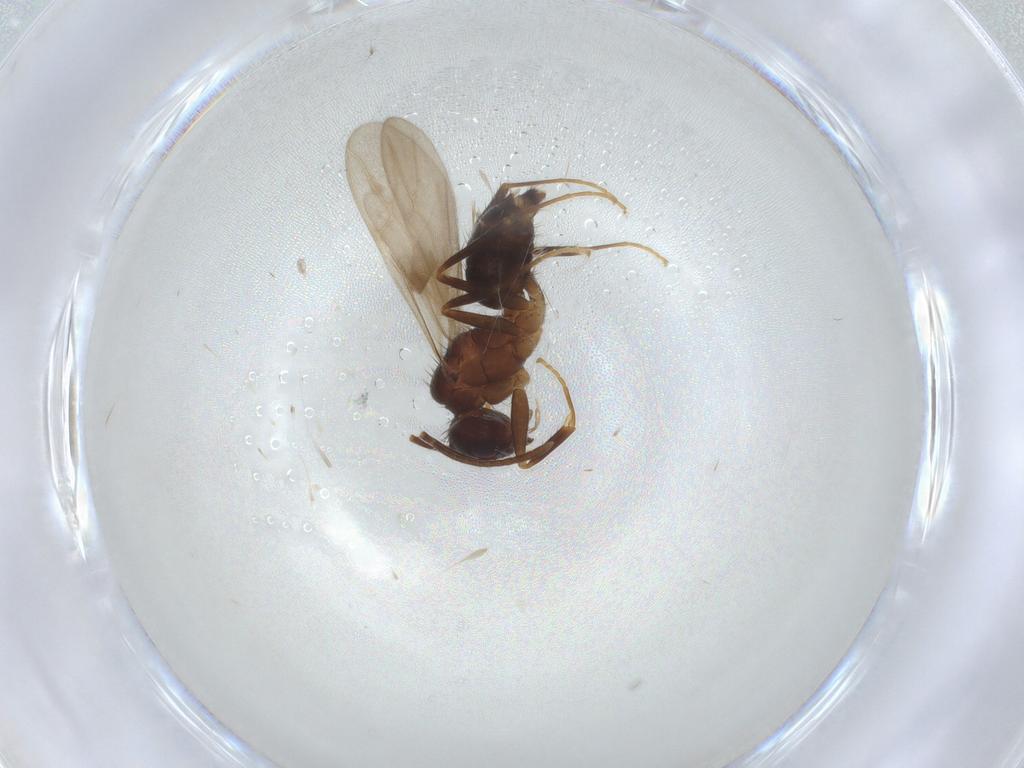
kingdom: Animalia
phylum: Arthropoda
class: Insecta
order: Hymenoptera
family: Formicidae
